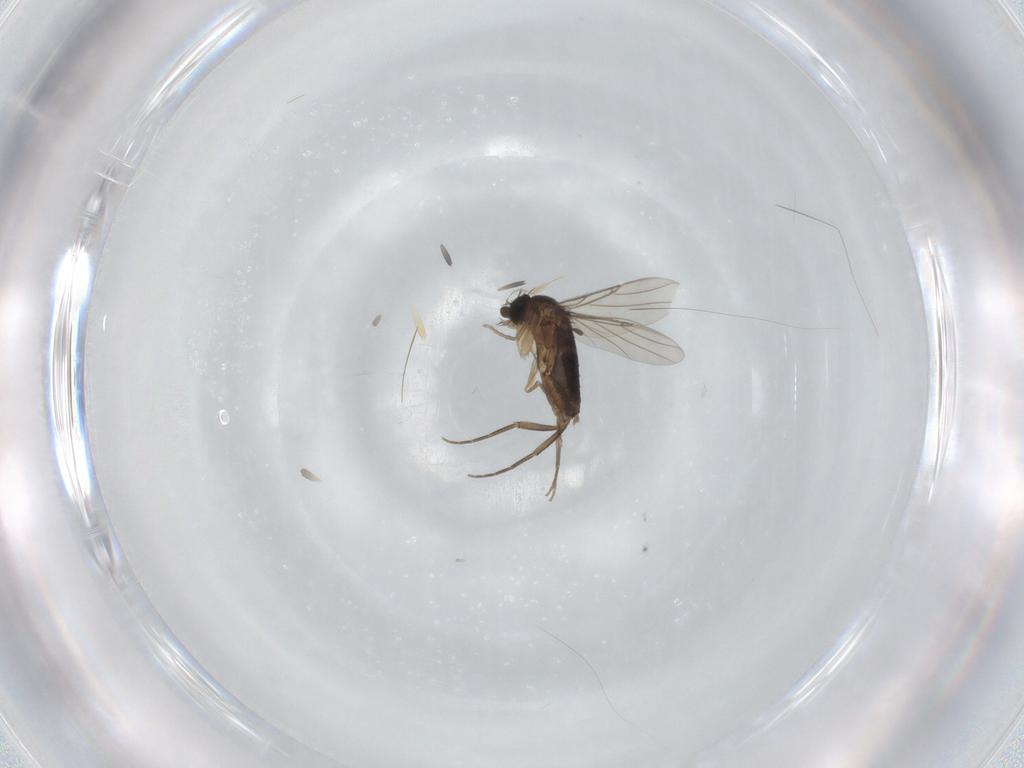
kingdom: Animalia
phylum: Arthropoda
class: Insecta
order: Diptera
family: Phoridae
